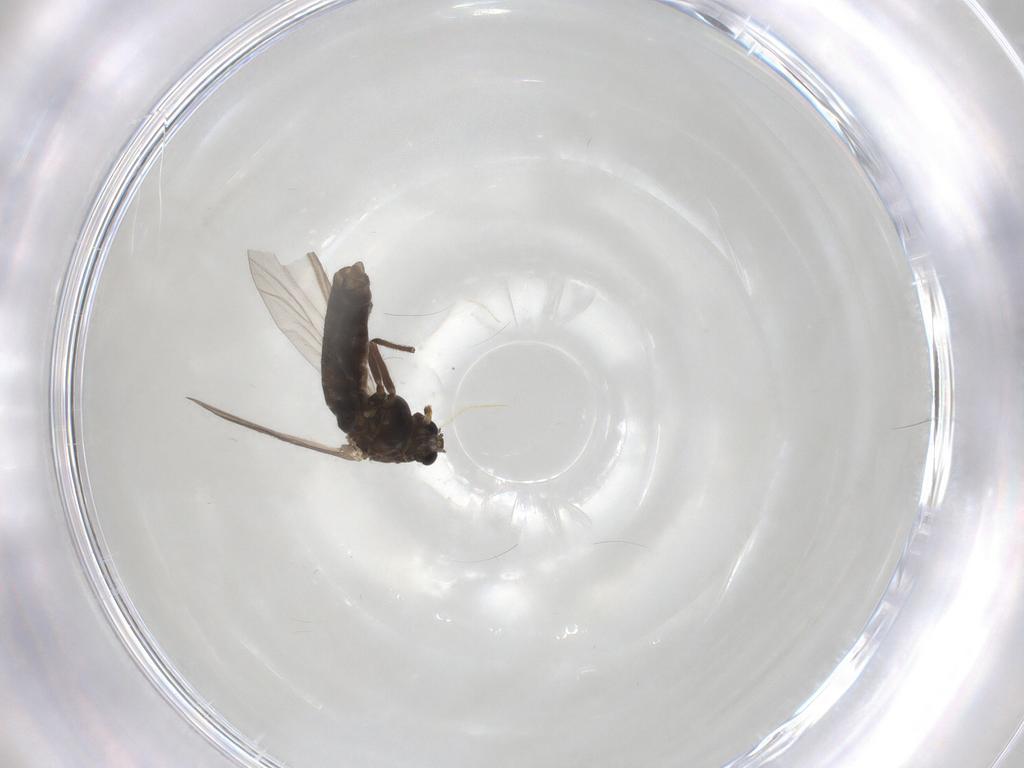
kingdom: Animalia
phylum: Arthropoda
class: Insecta
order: Diptera
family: Chironomidae
